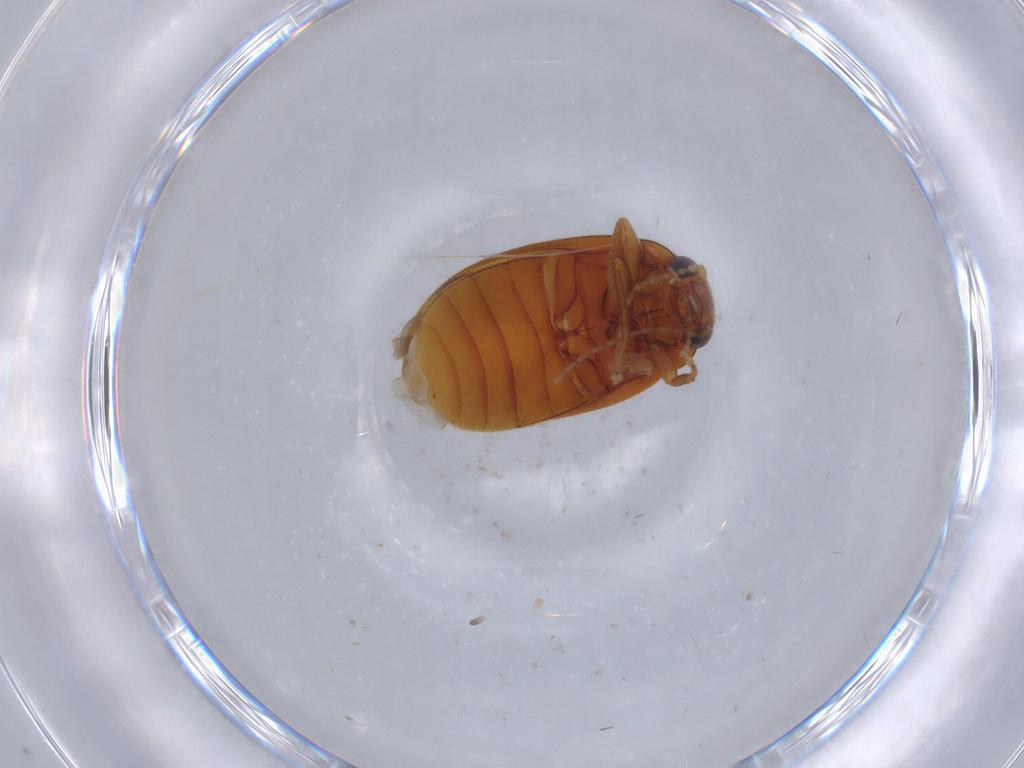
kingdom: Animalia
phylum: Arthropoda
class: Insecta
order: Coleoptera
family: Scirtidae
